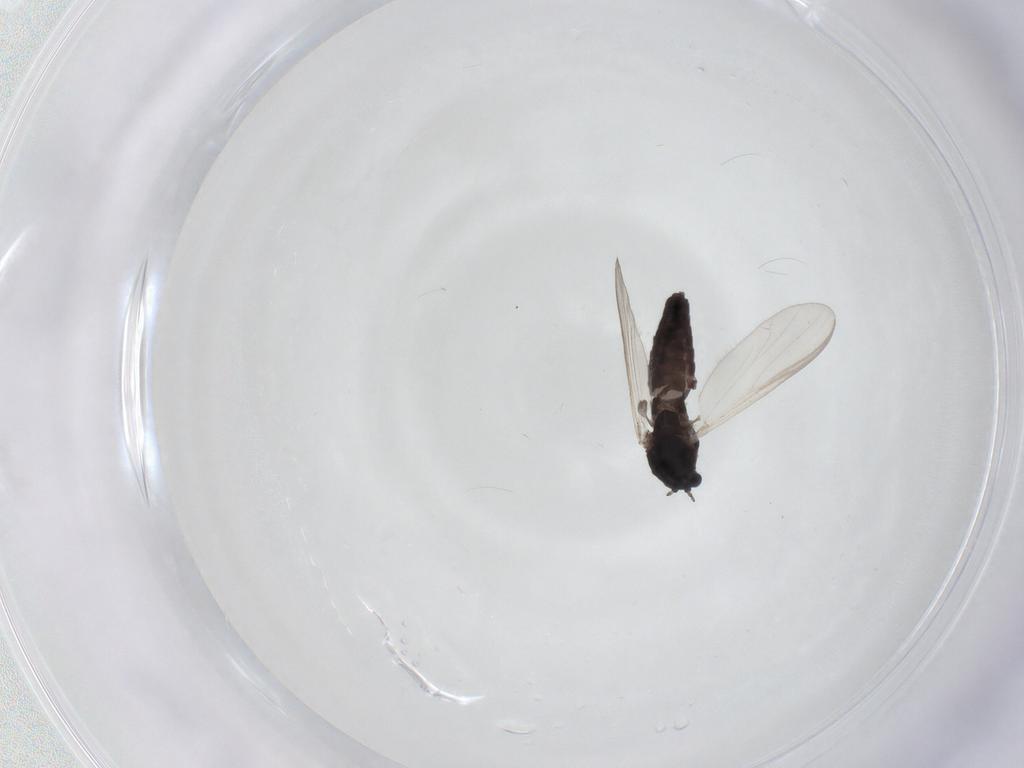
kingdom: Animalia
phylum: Arthropoda
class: Insecta
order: Diptera
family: Chironomidae
